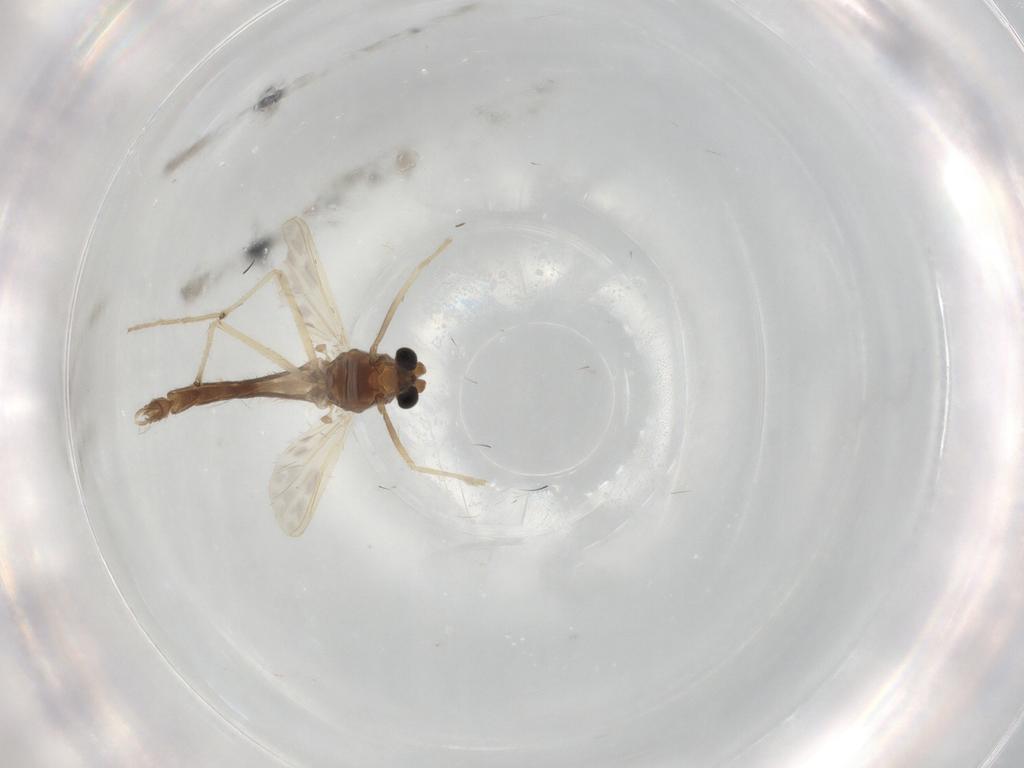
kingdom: Animalia
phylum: Arthropoda
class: Insecta
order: Diptera
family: Chironomidae
